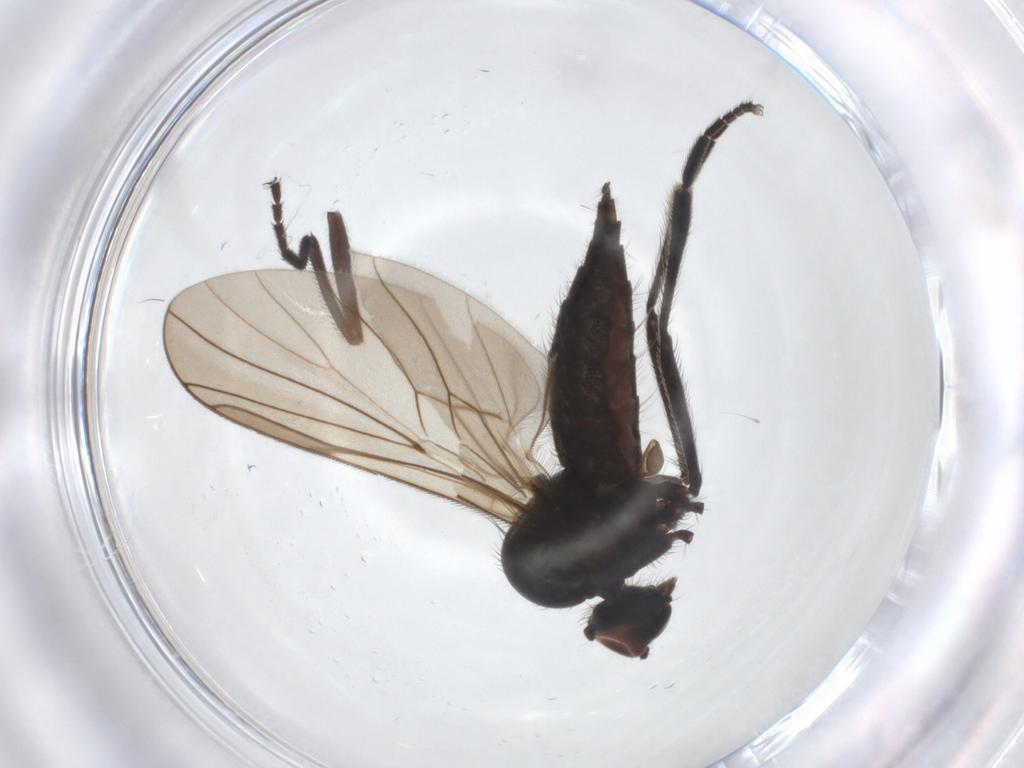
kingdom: Animalia
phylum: Arthropoda
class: Insecta
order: Diptera
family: Hybotidae
